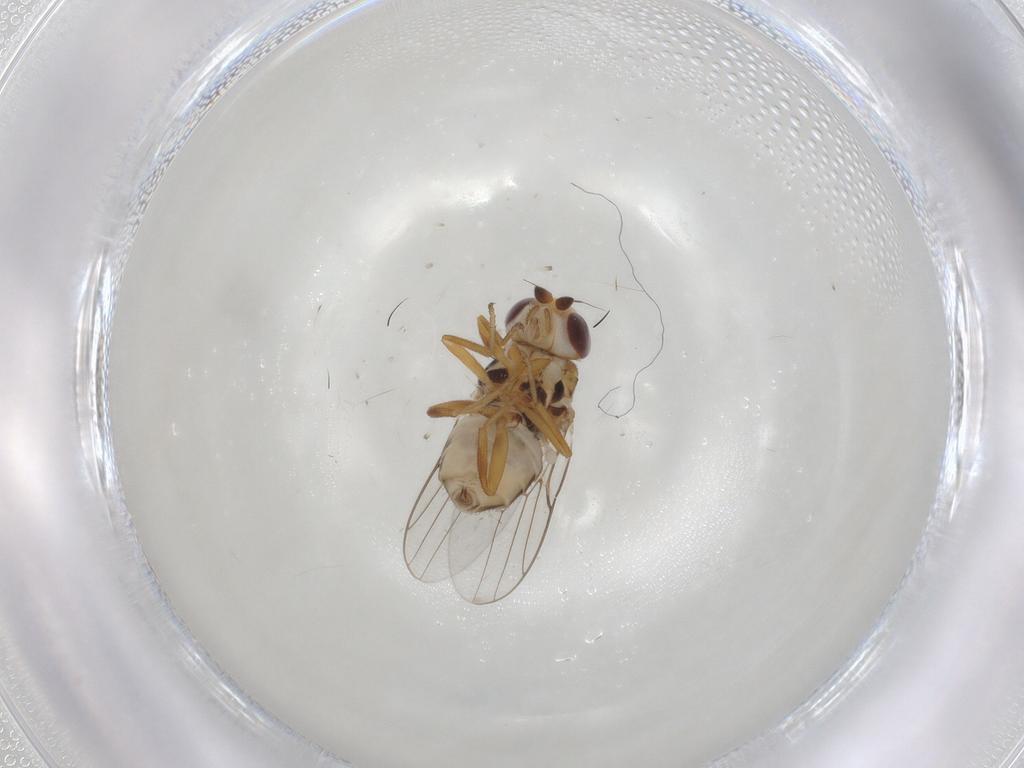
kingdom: Animalia
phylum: Arthropoda
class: Insecta
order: Diptera
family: Chloropidae
